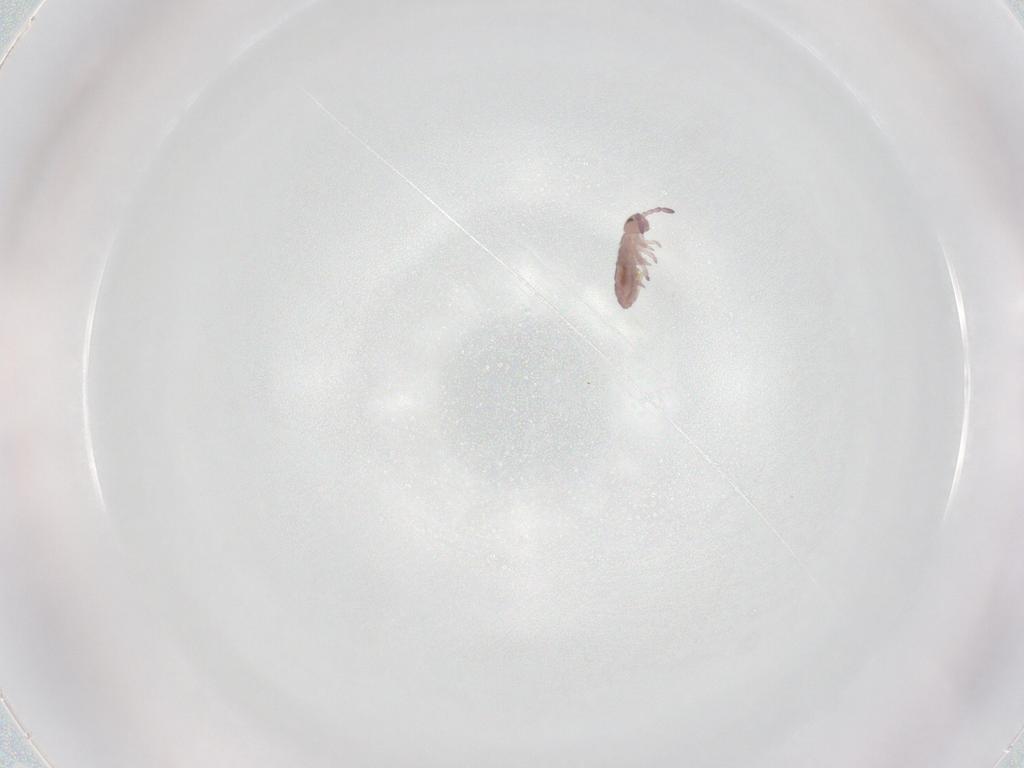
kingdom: Animalia
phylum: Arthropoda
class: Collembola
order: Entomobryomorpha
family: Isotomidae
